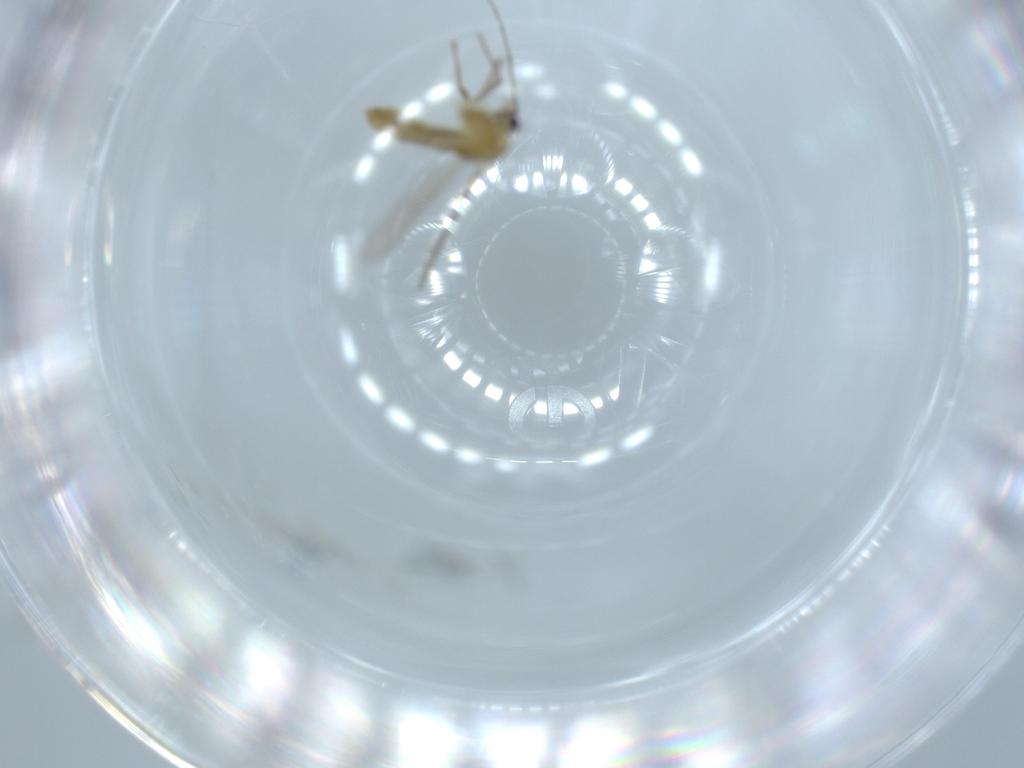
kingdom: Animalia
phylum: Arthropoda
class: Insecta
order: Diptera
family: Chironomidae
